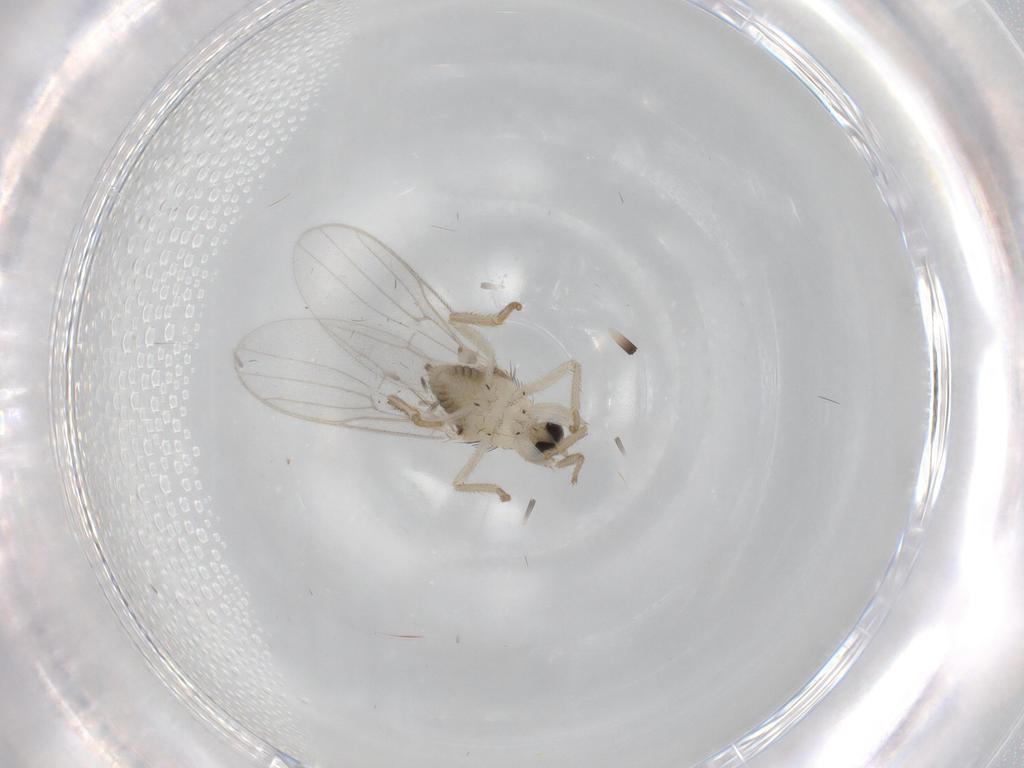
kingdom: Animalia
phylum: Arthropoda
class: Insecta
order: Diptera
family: Hybotidae
